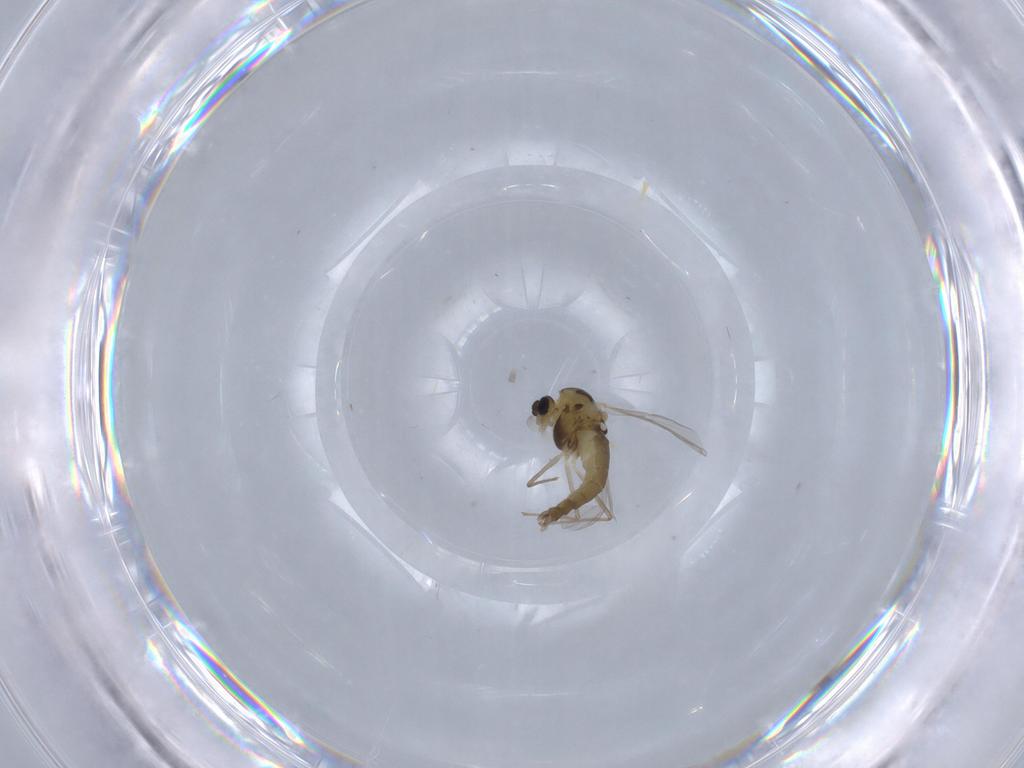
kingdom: Animalia
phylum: Arthropoda
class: Insecta
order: Diptera
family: Chironomidae
